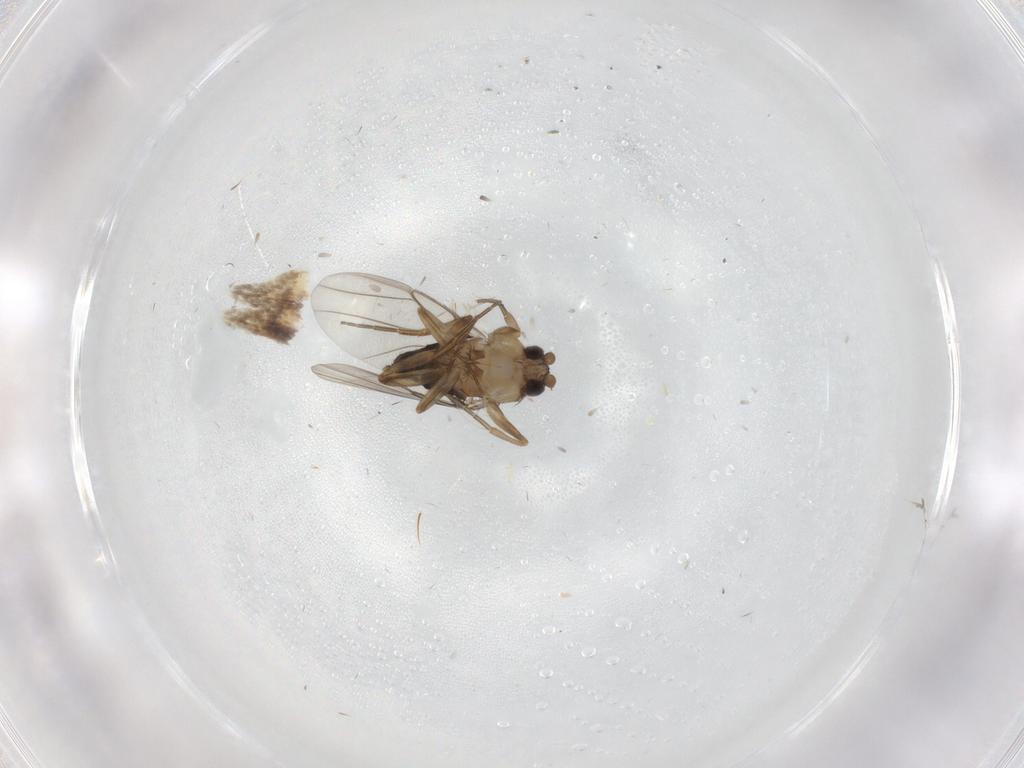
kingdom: Animalia
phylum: Arthropoda
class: Insecta
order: Diptera
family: Phoridae
